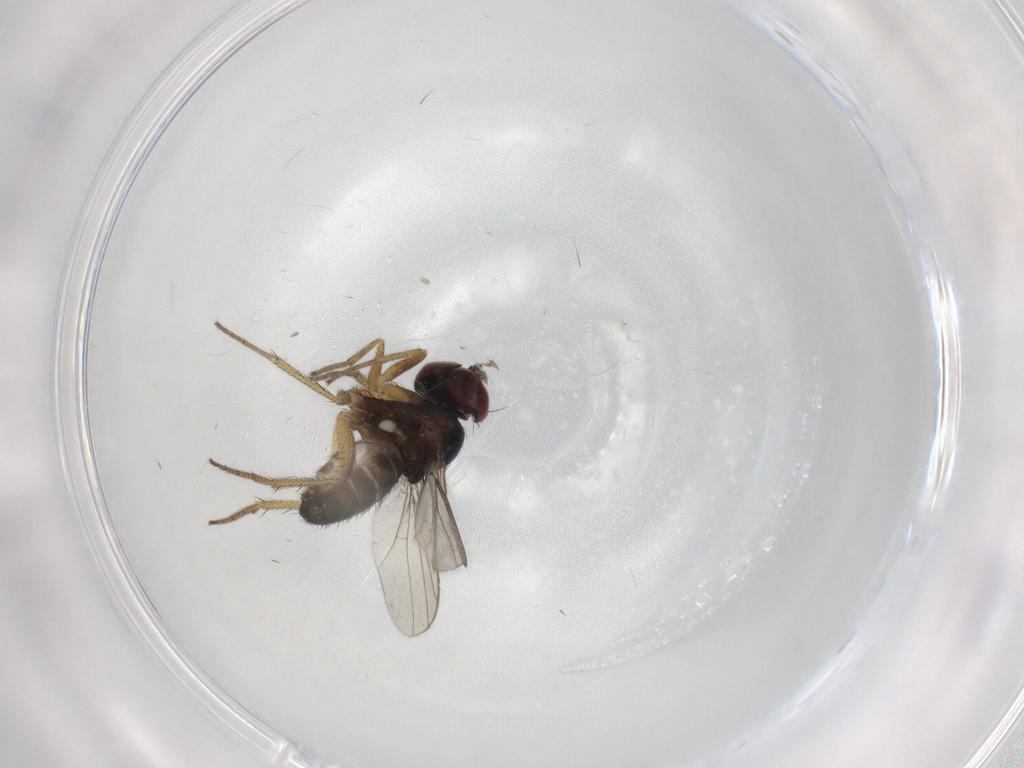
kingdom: Animalia
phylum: Arthropoda
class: Insecta
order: Diptera
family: Dolichopodidae
